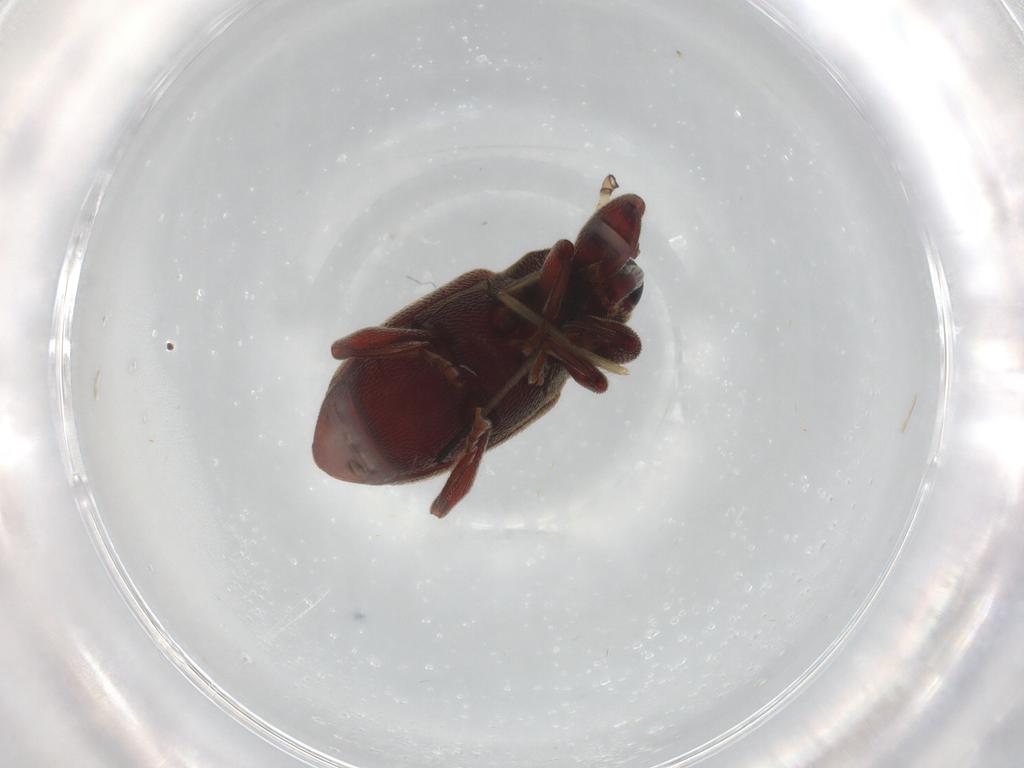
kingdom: Animalia
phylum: Arthropoda
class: Insecta
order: Coleoptera
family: Curculionidae
